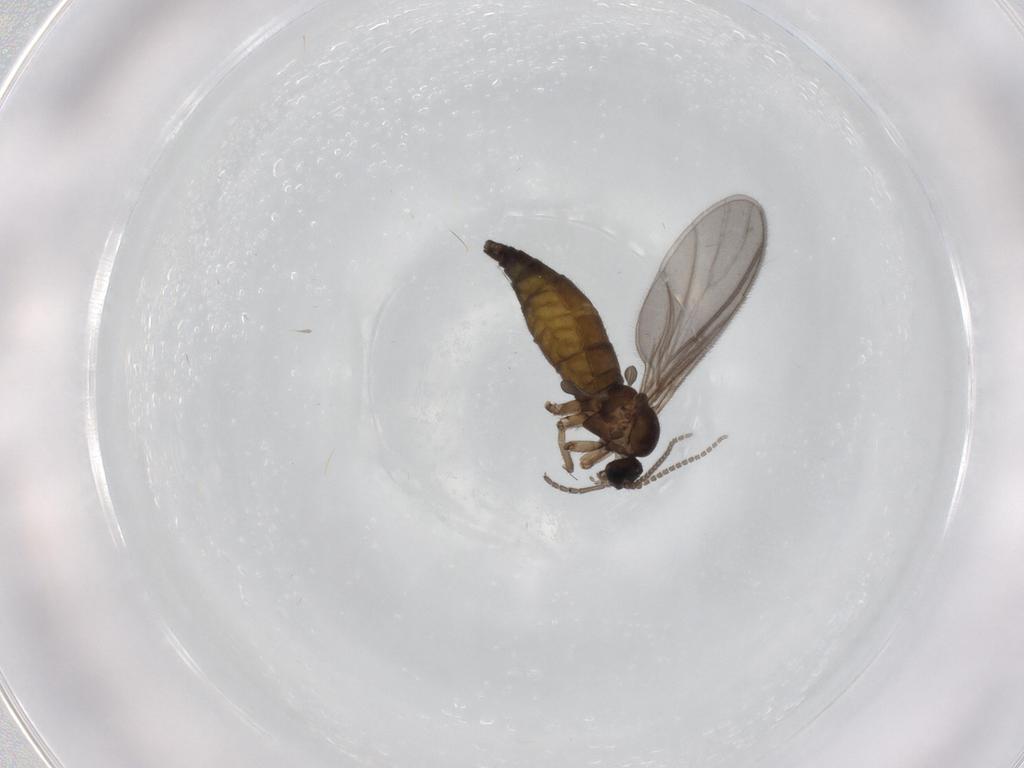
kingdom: Animalia
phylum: Arthropoda
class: Insecta
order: Diptera
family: Sciaridae
